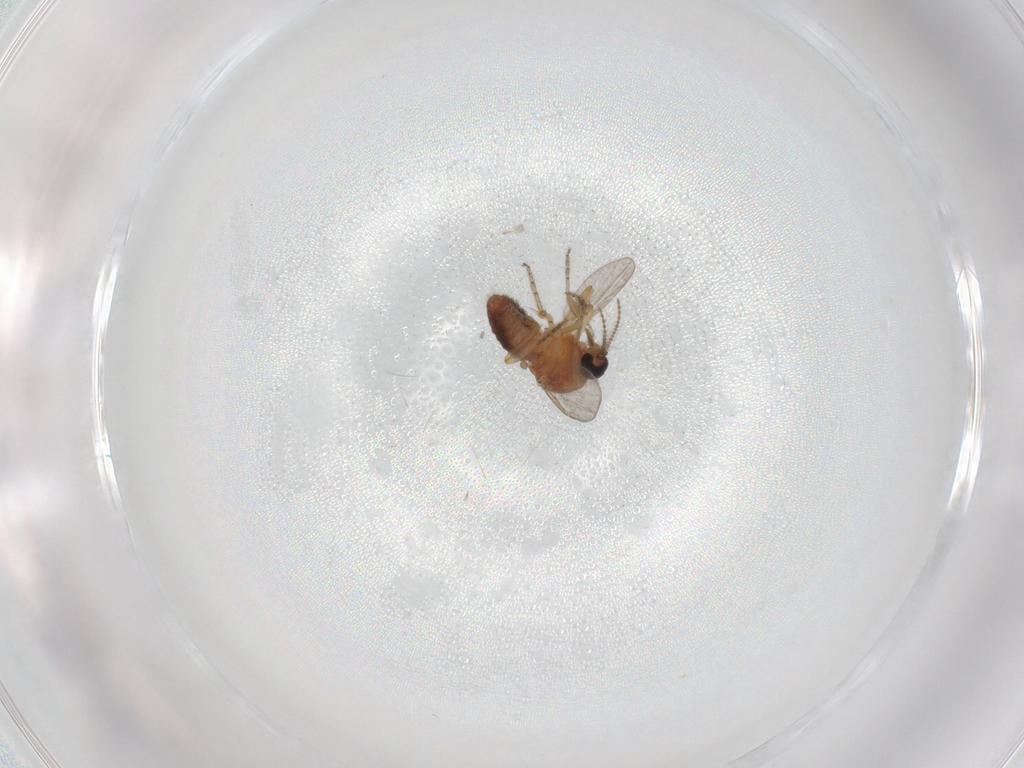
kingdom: Animalia
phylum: Arthropoda
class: Insecta
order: Diptera
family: Ceratopogonidae
